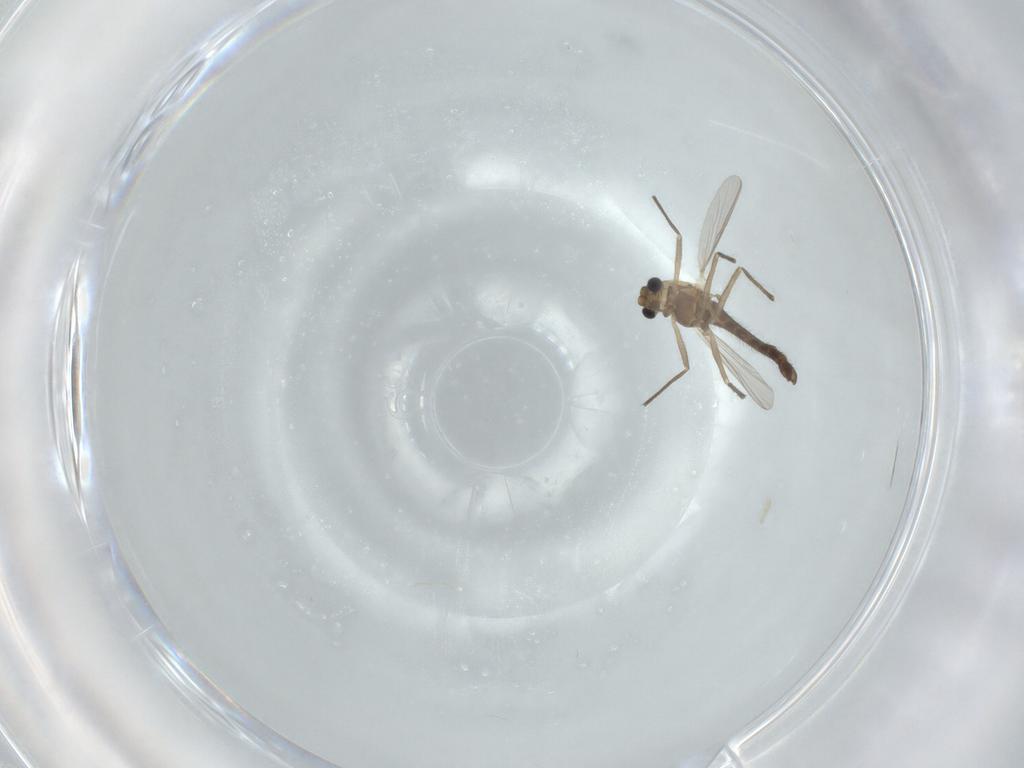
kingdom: Animalia
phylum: Arthropoda
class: Insecta
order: Diptera
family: Chironomidae
